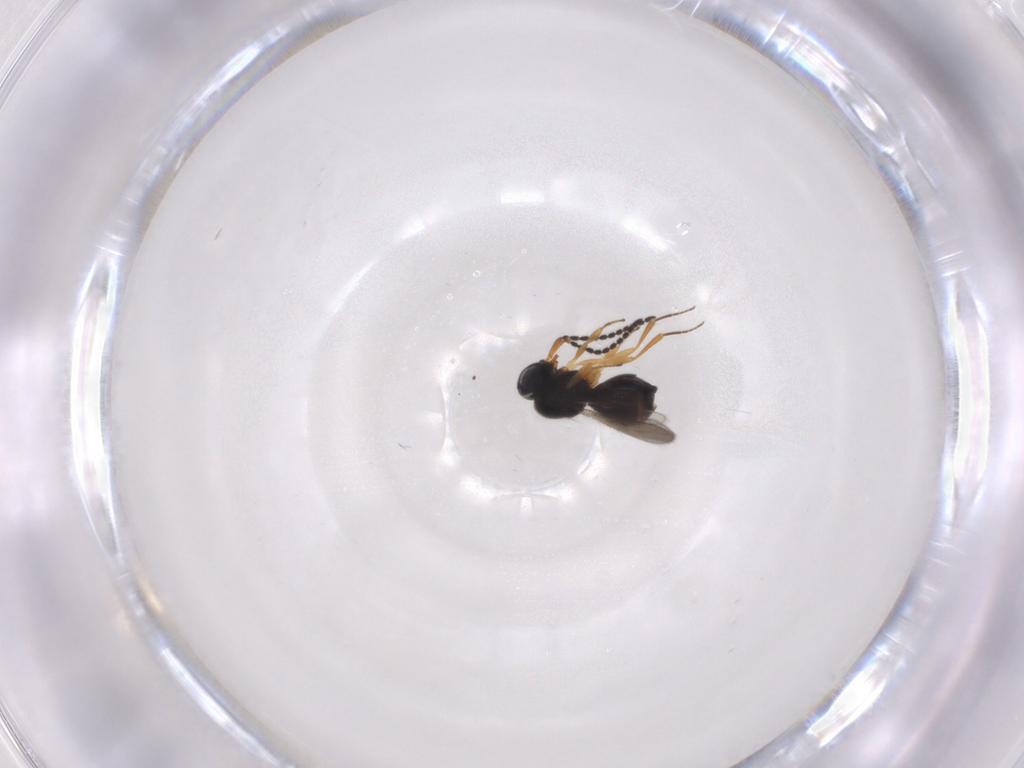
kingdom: Animalia
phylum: Arthropoda
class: Insecta
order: Hymenoptera
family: Scelionidae
